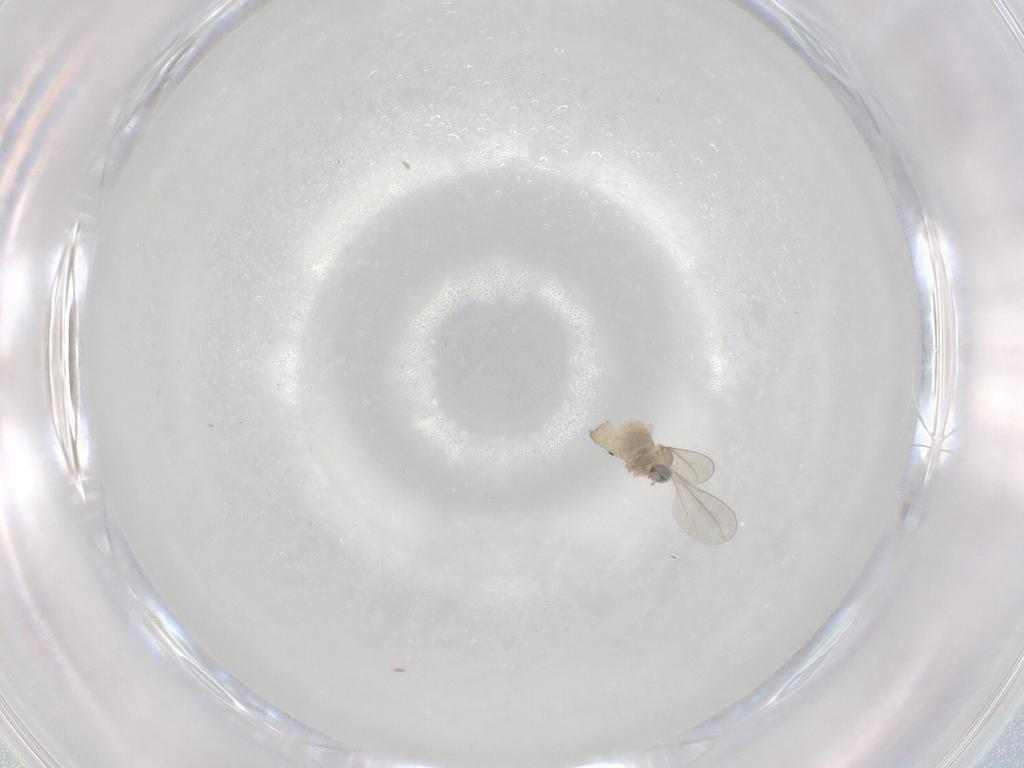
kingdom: Animalia
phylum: Arthropoda
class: Insecta
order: Diptera
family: Cecidomyiidae
